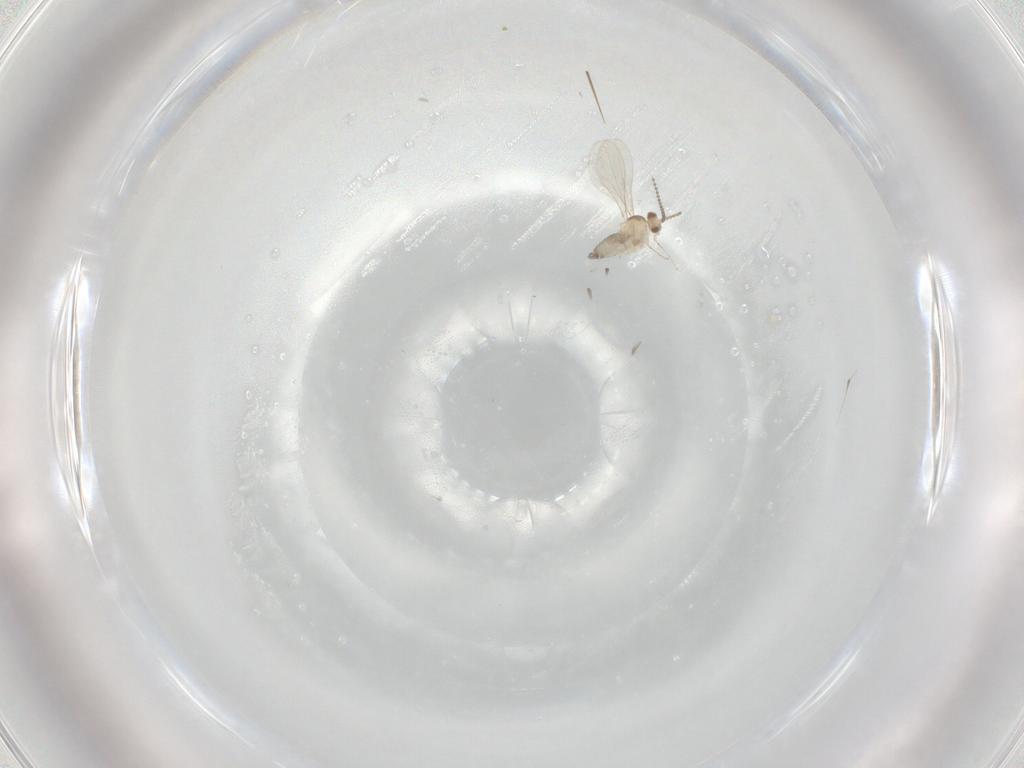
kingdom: Animalia
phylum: Arthropoda
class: Insecta
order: Diptera
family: Cecidomyiidae
